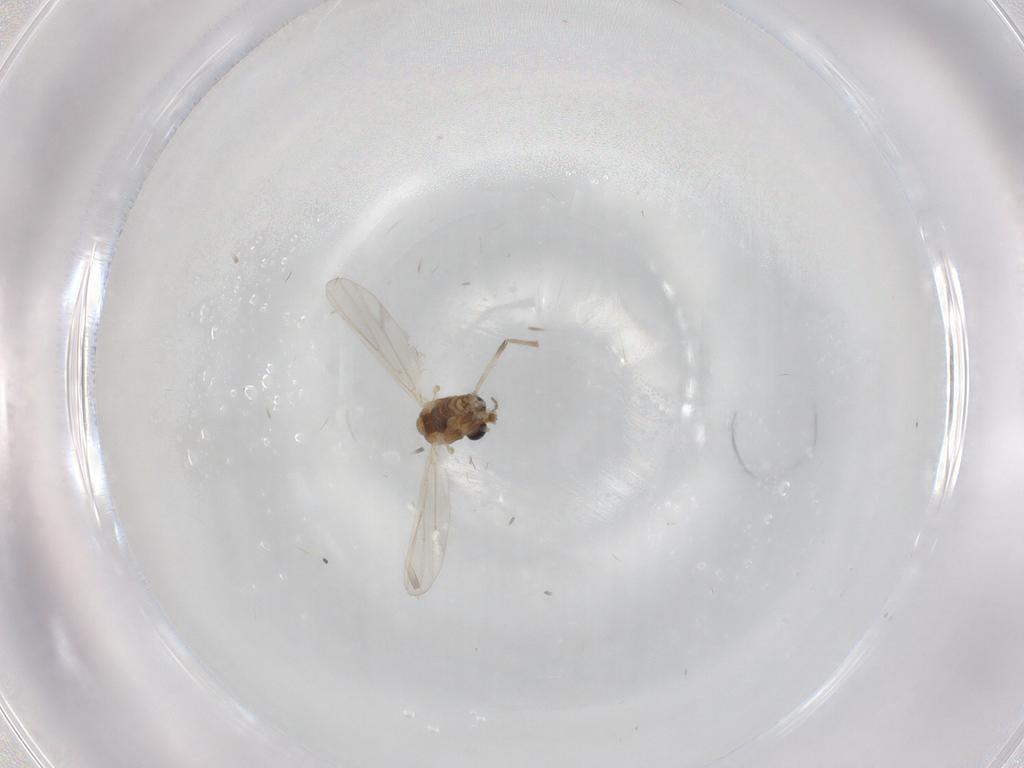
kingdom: Animalia
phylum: Arthropoda
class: Insecta
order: Diptera
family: Chironomidae
